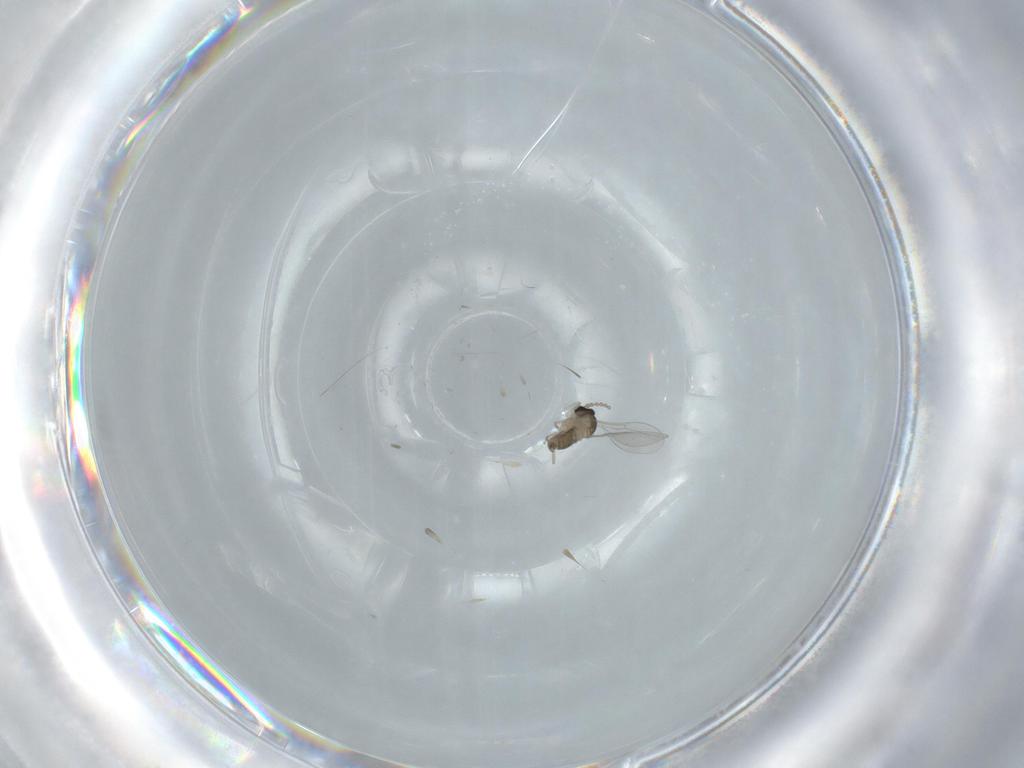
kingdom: Animalia
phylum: Arthropoda
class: Insecta
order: Diptera
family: Cecidomyiidae
